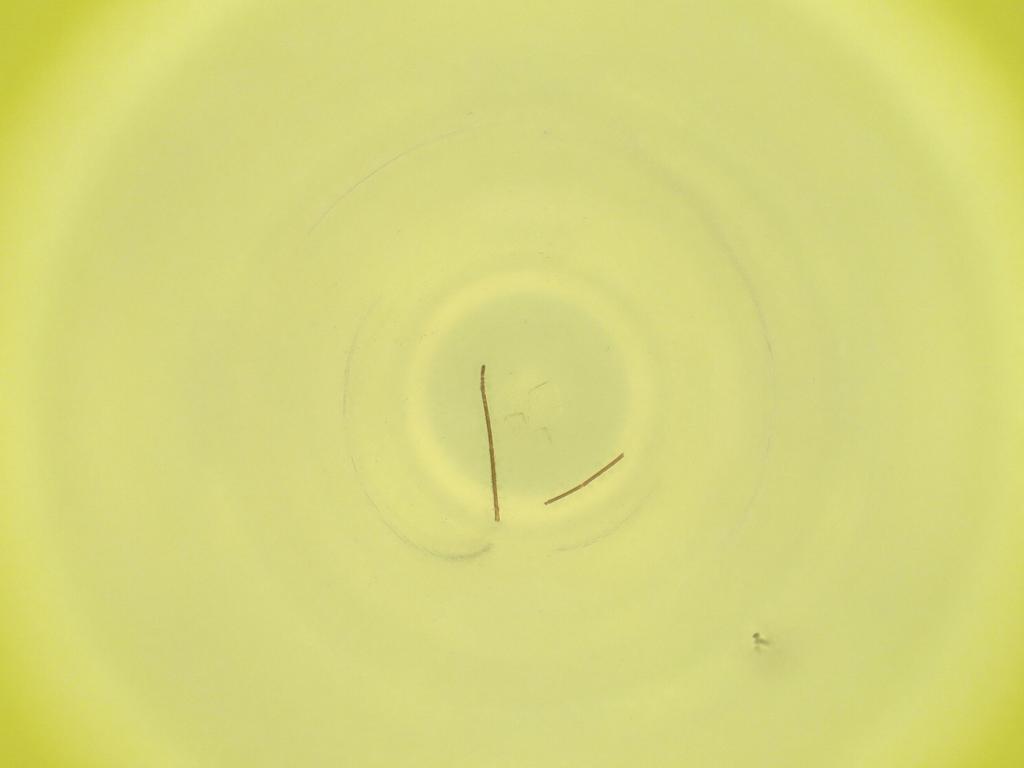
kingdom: Animalia
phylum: Arthropoda
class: Insecta
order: Diptera
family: Cecidomyiidae
